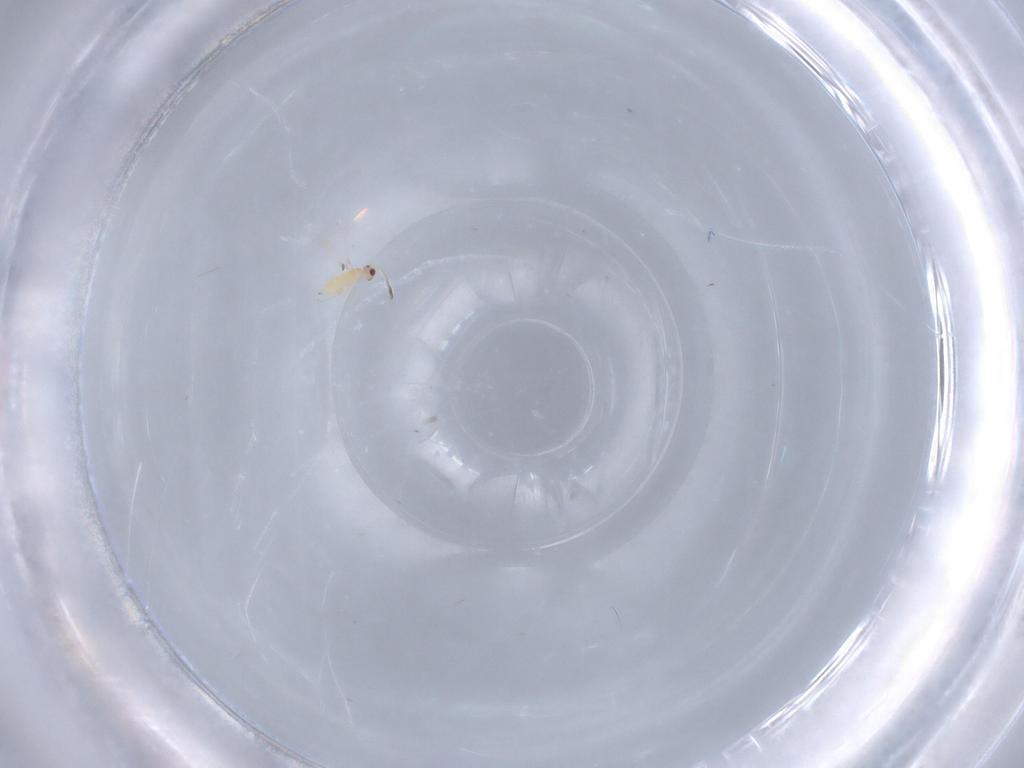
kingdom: Animalia
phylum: Arthropoda
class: Insecta
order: Hymenoptera
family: Mymaridae
